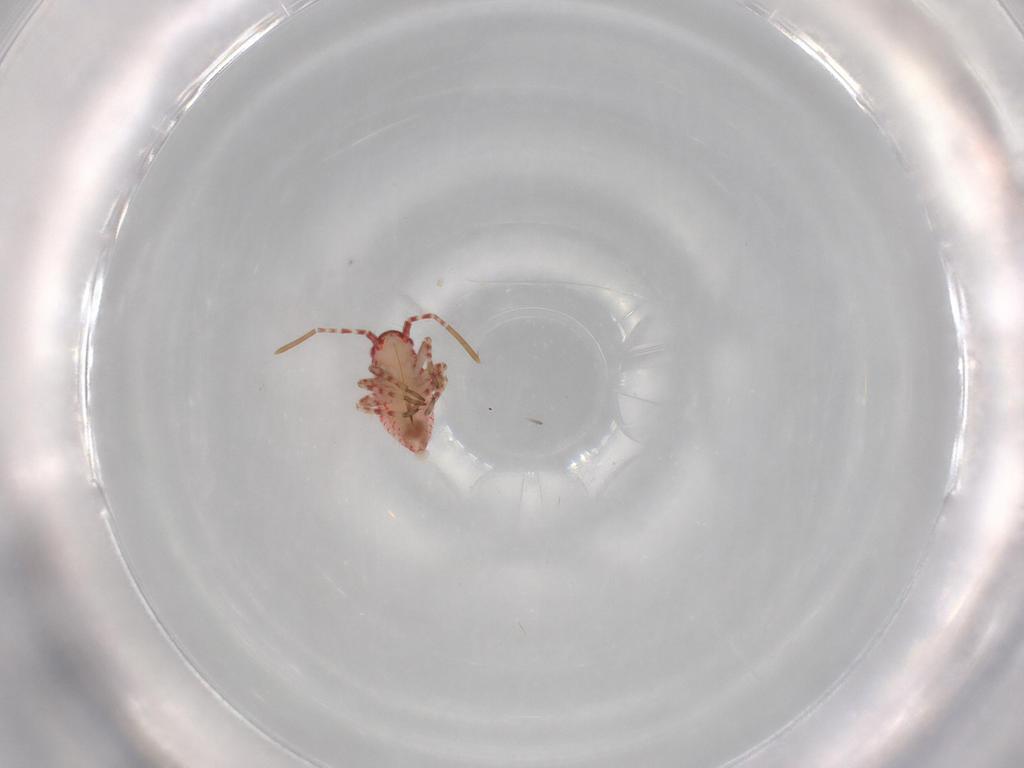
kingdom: Animalia
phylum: Arthropoda
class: Insecta
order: Hemiptera
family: Miridae
